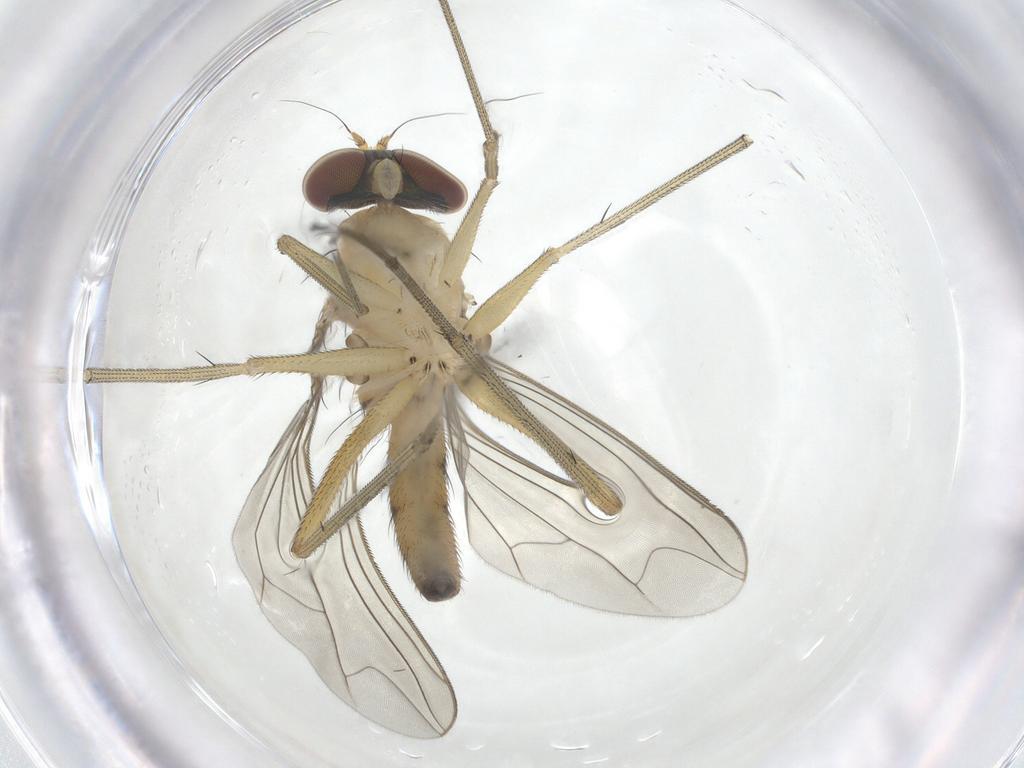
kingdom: Animalia
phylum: Arthropoda
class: Insecta
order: Diptera
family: Dolichopodidae
